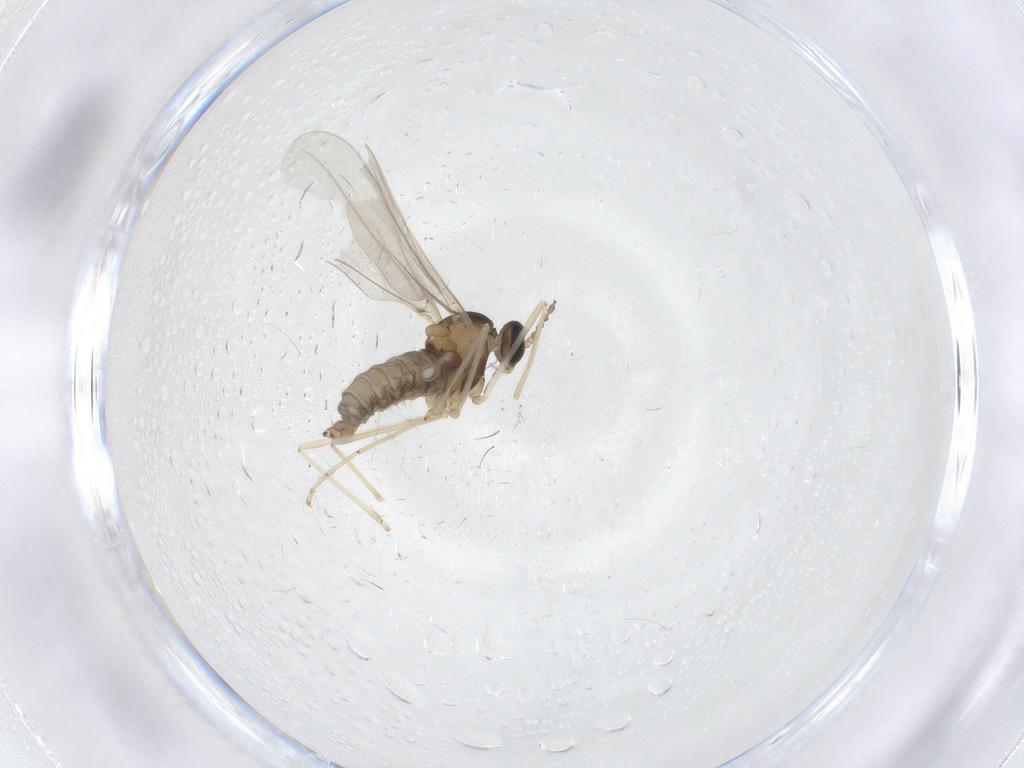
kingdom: Animalia
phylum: Arthropoda
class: Insecta
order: Diptera
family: Cecidomyiidae
